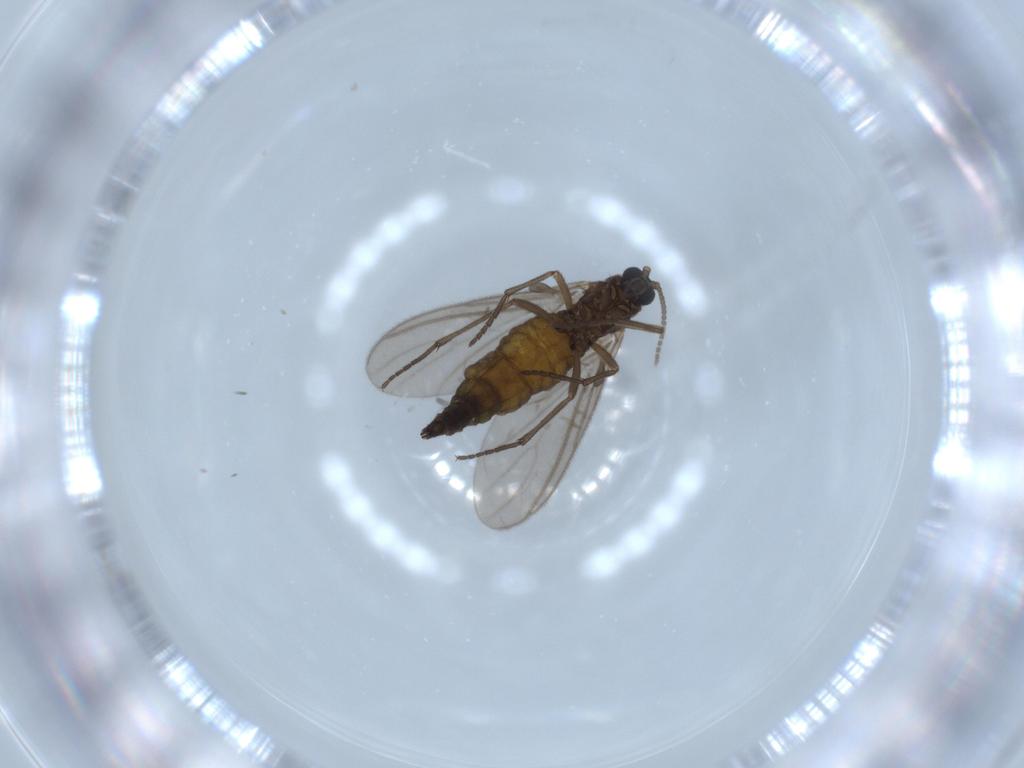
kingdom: Animalia
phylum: Arthropoda
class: Insecta
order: Diptera
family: Sciaridae
